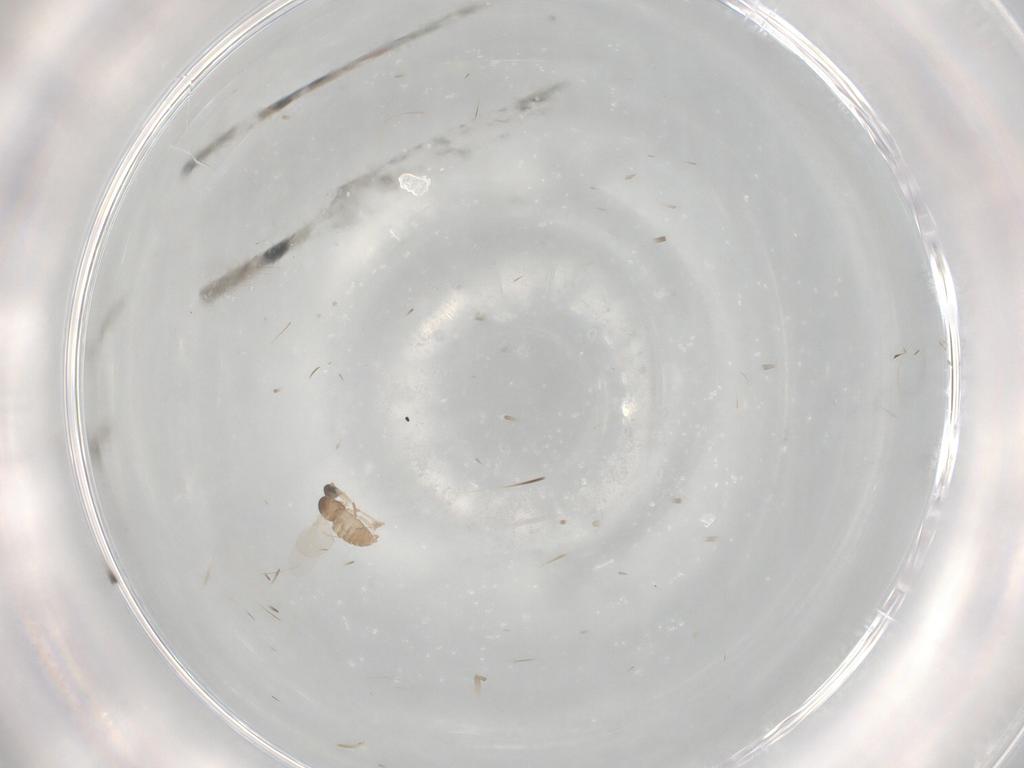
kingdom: Animalia
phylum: Arthropoda
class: Insecta
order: Diptera
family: Cecidomyiidae
